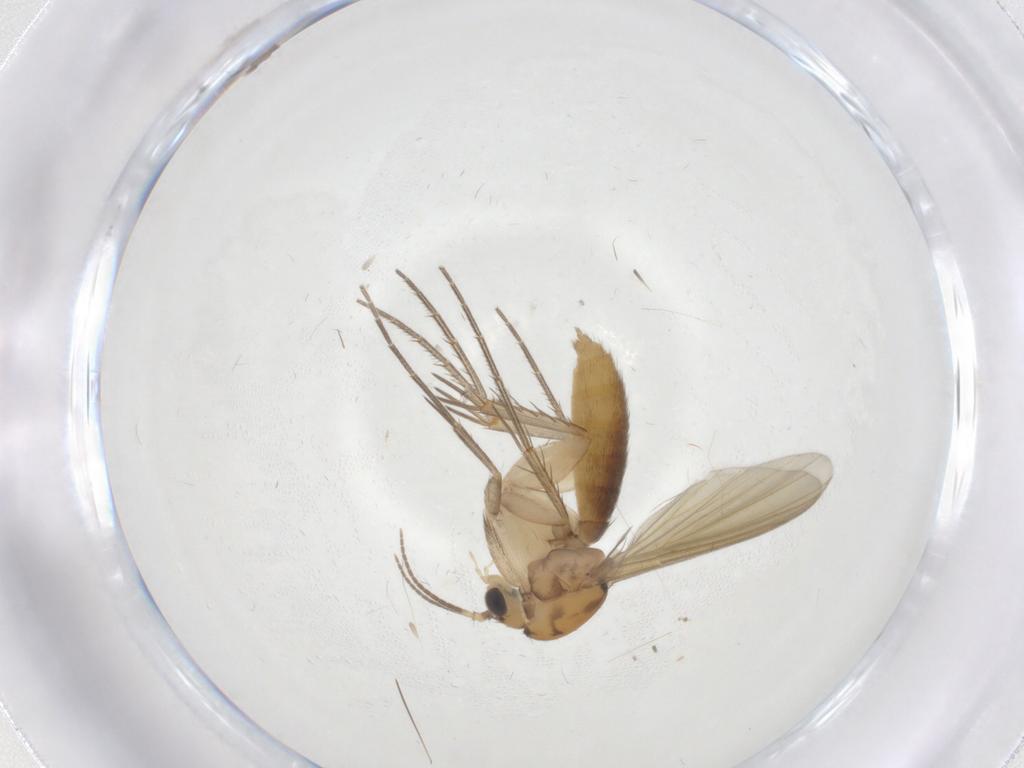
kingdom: Animalia
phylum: Arthropoda
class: Insecta
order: Diptera
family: Mycetophilidae
